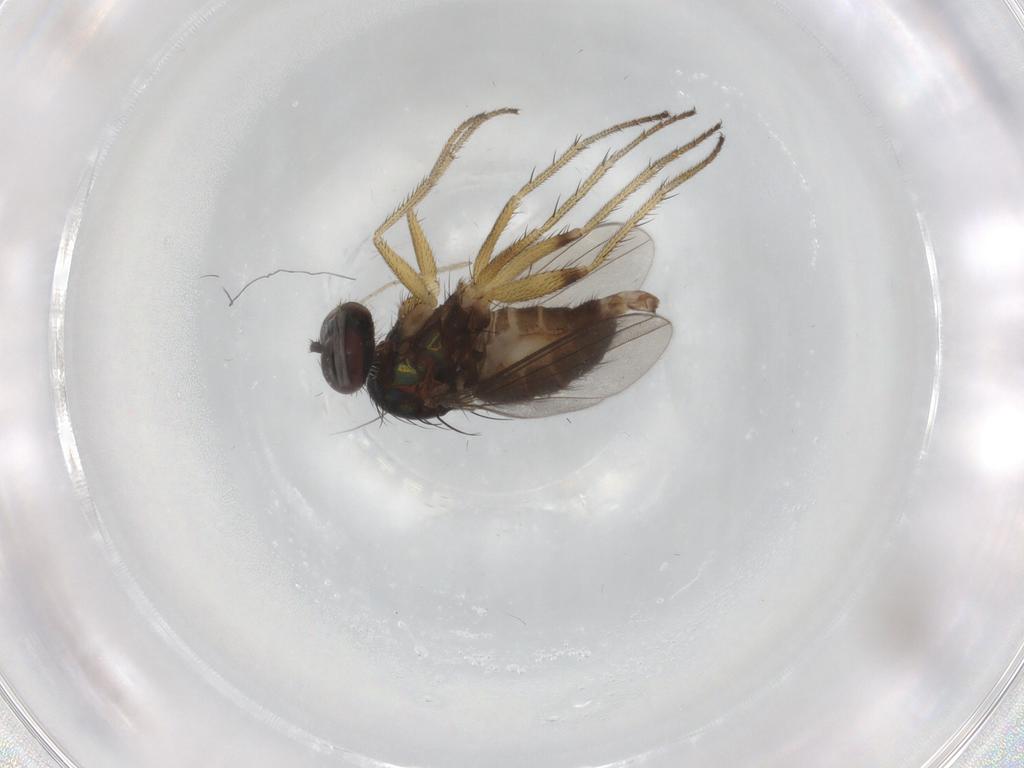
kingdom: Animalia
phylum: Arthropoda
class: Insecta
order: Diptera
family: Dolichopodidae
